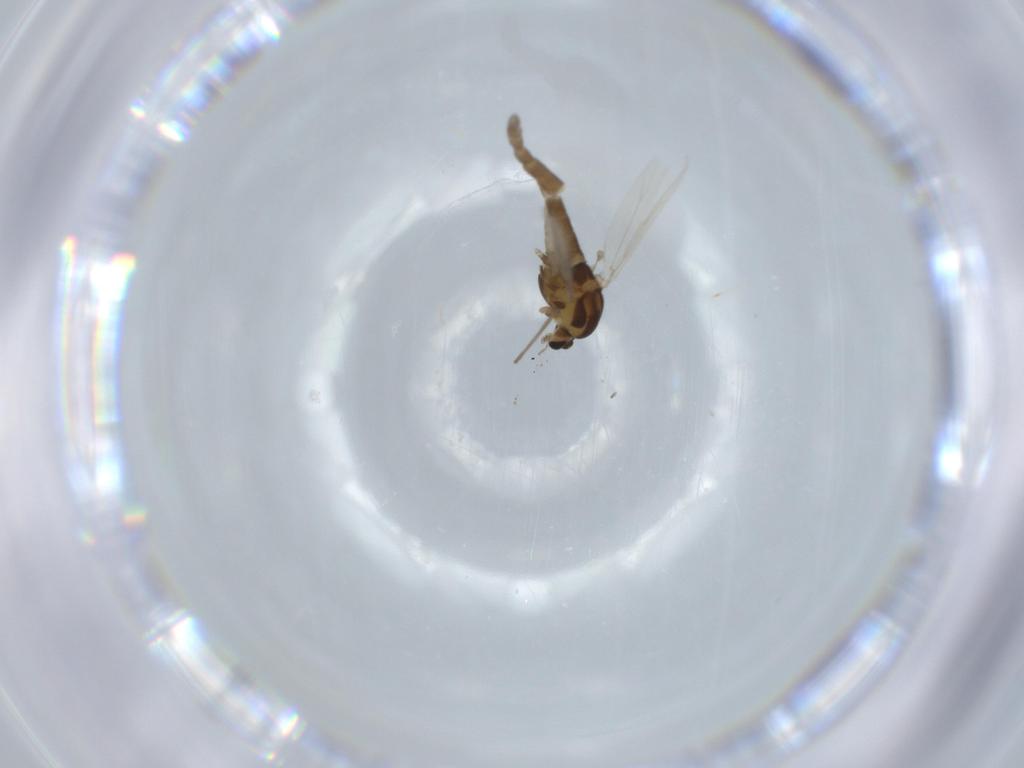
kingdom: Animalia
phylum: Arthropoda
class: Insecta
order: Diptera
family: Chironomidae
